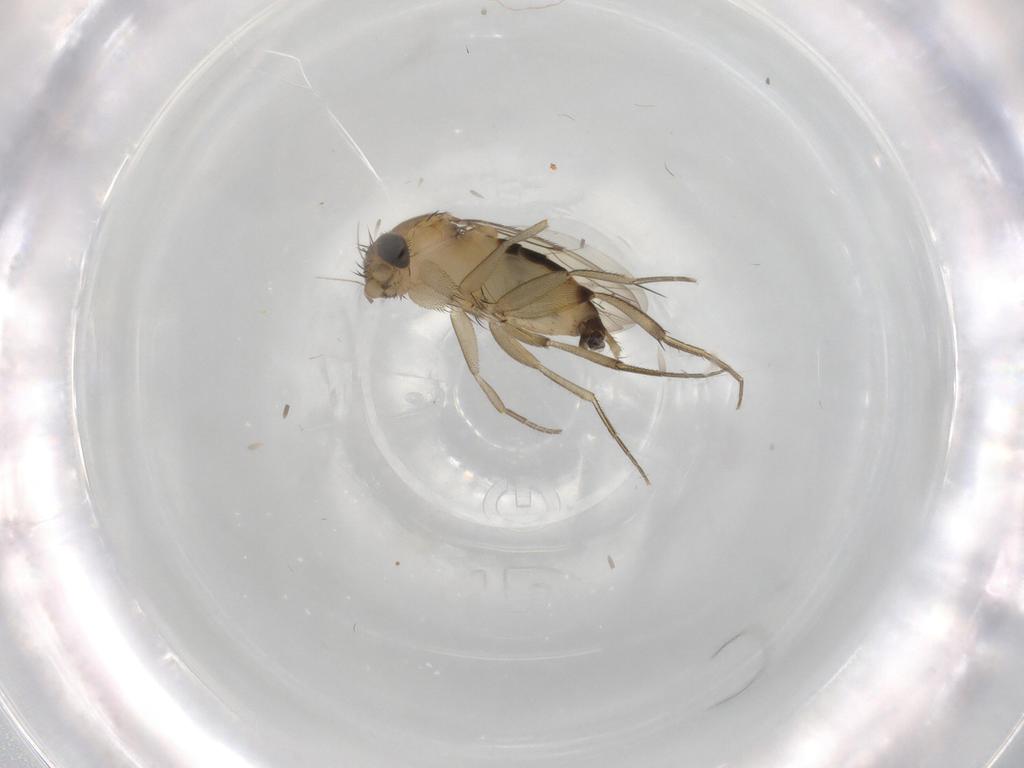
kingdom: Animalia
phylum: Arthropoda
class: Insecta
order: Diptera
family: Phoridae
